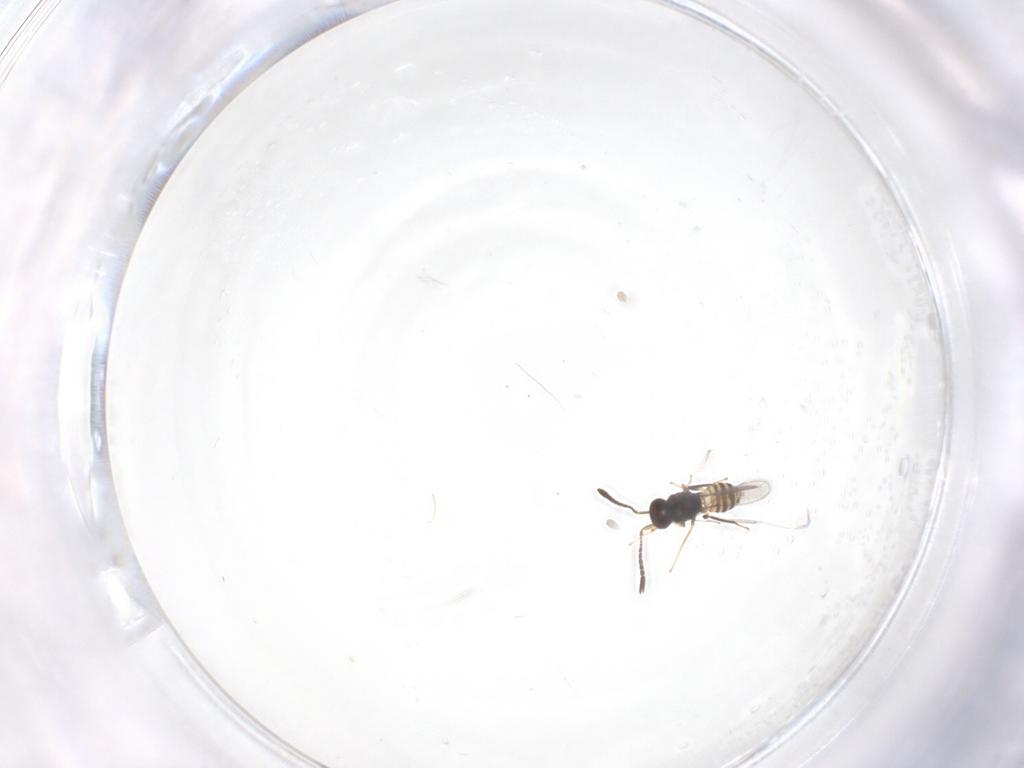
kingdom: Animalia
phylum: Arthropoda
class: Insecta
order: Hymenoptera
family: Mymaridae
